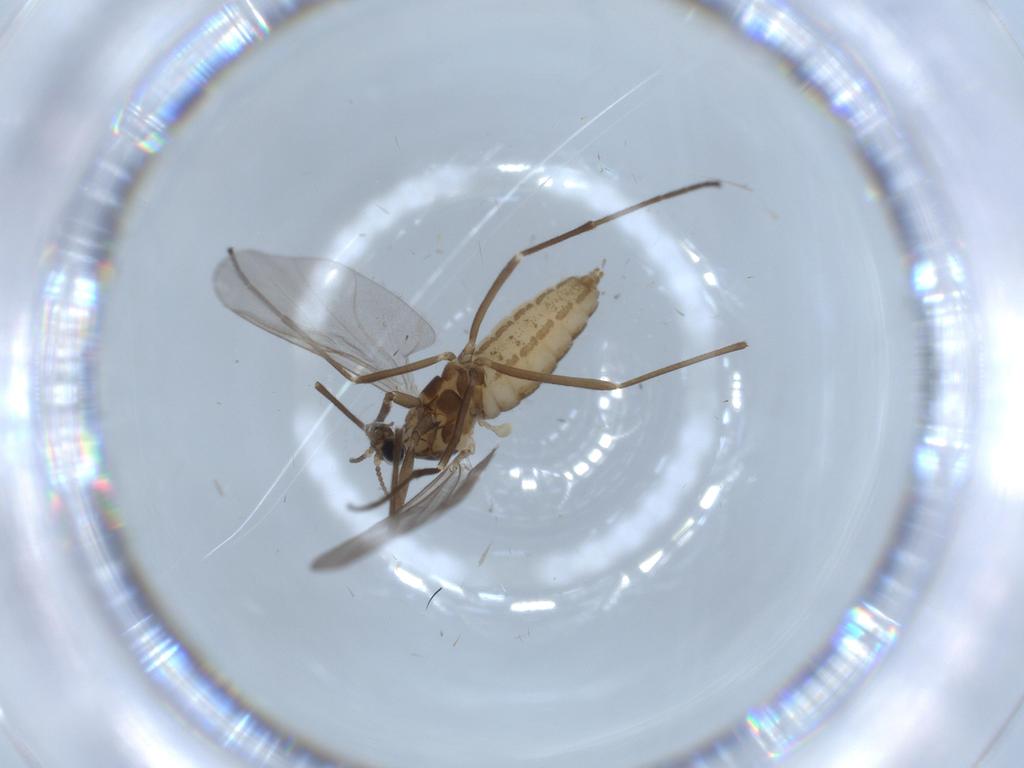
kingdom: Animalia
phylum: Arthropoda
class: Insecta
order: Diptera
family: Cecidomyiidae
